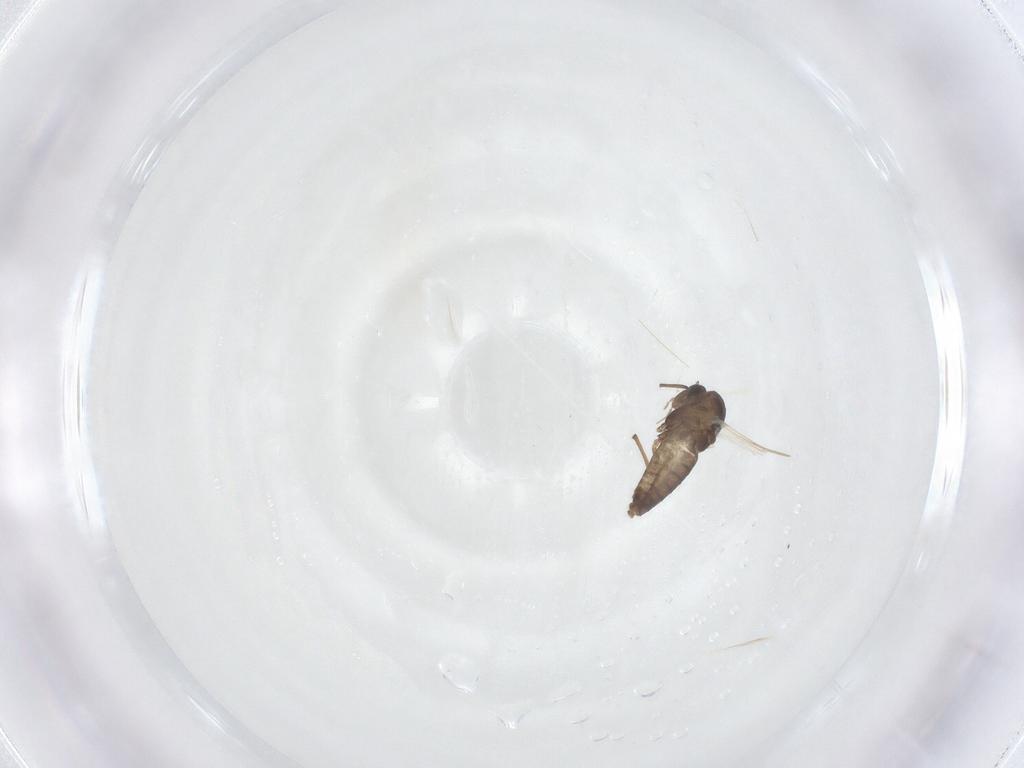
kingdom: Animalia
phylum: Arthropoda
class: Insecta
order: Diptera
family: Chironomidae
